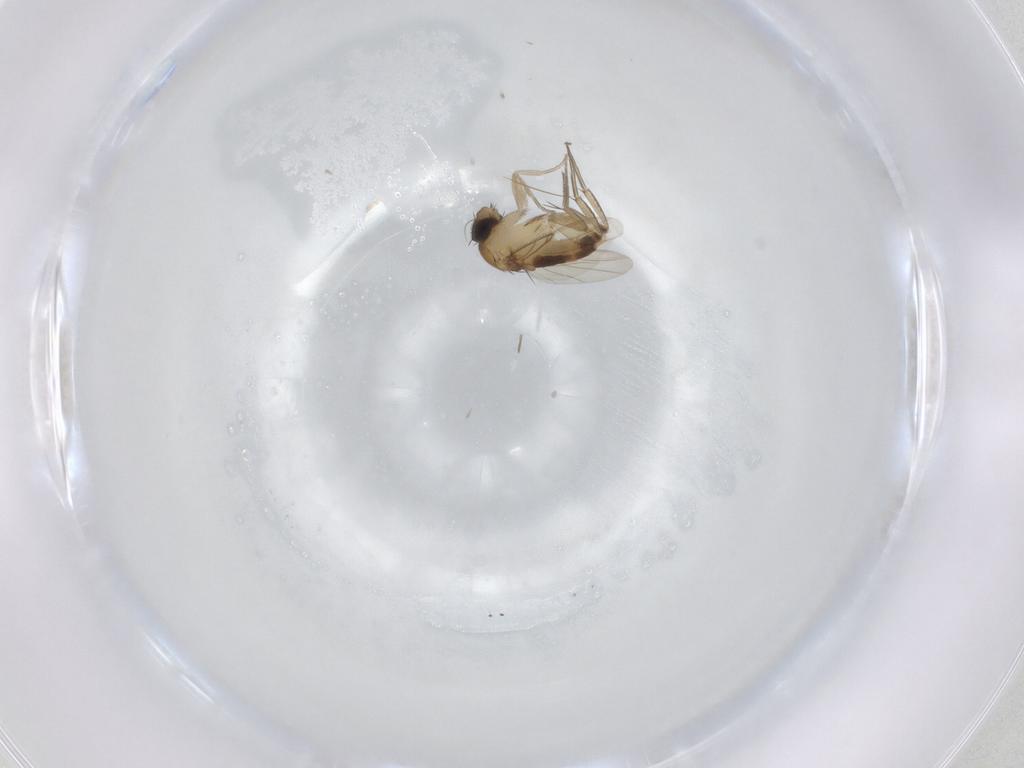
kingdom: Animalia
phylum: Arthropoda
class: Insecta
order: Diptera
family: Phoridae
